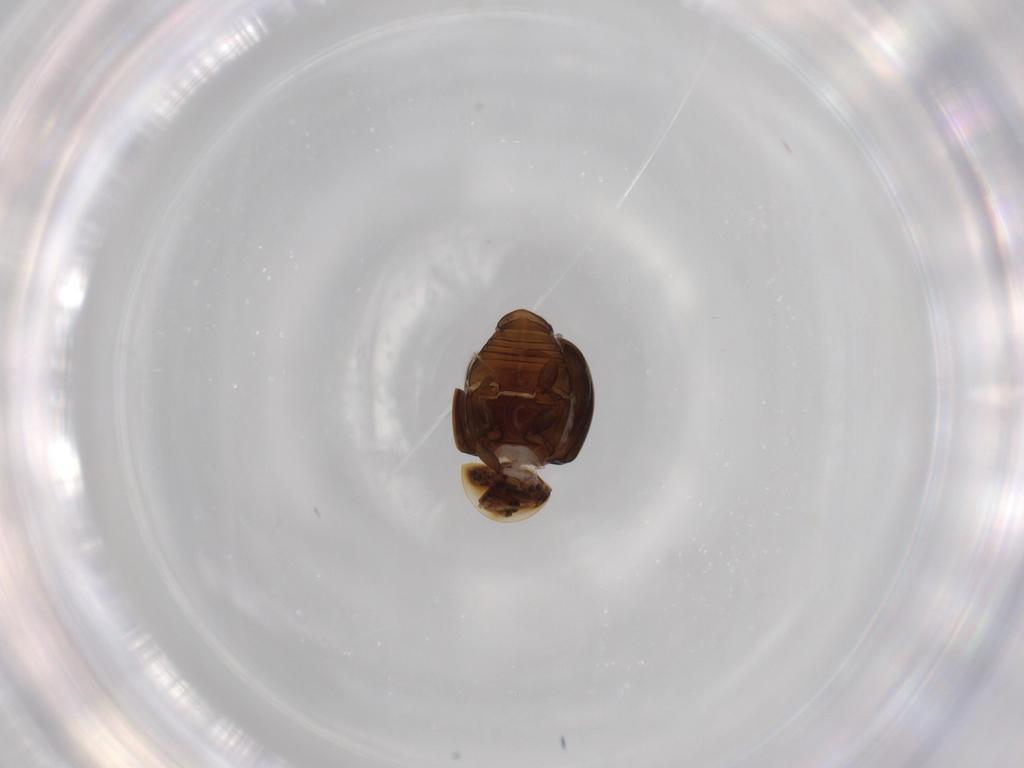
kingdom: Animalia
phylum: Arthropoda
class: Insecta
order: Coleoptera
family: Corylophidae
